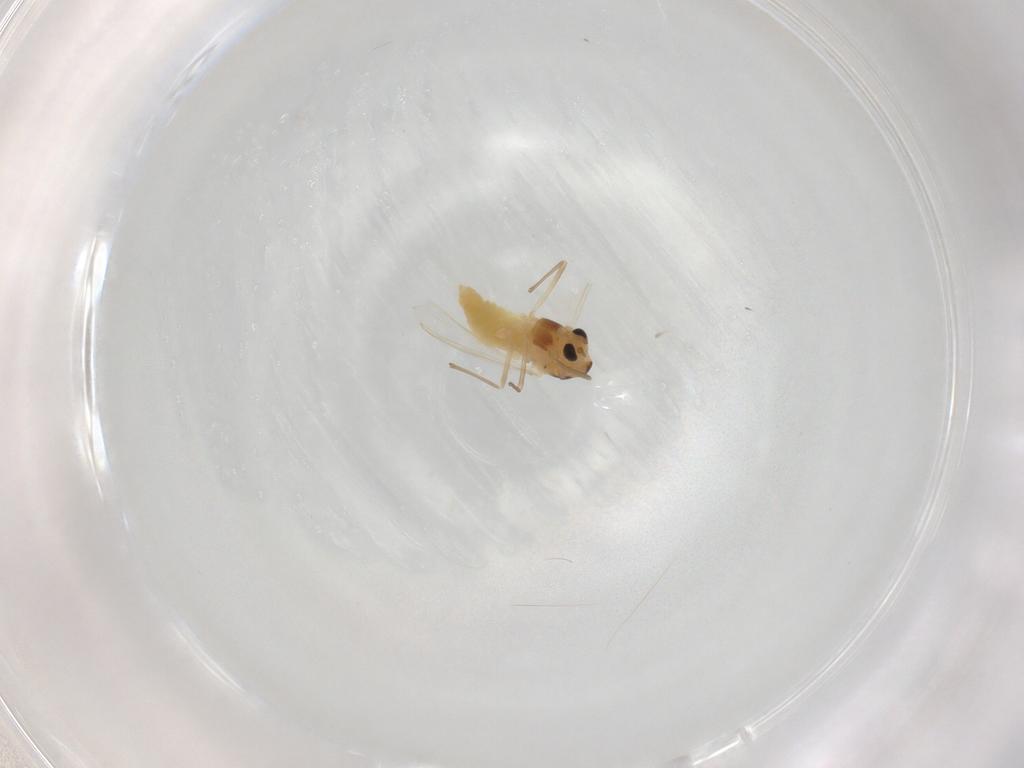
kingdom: Animalia
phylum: Arthropoda
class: Insecta
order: Diptera
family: Chironomidae
